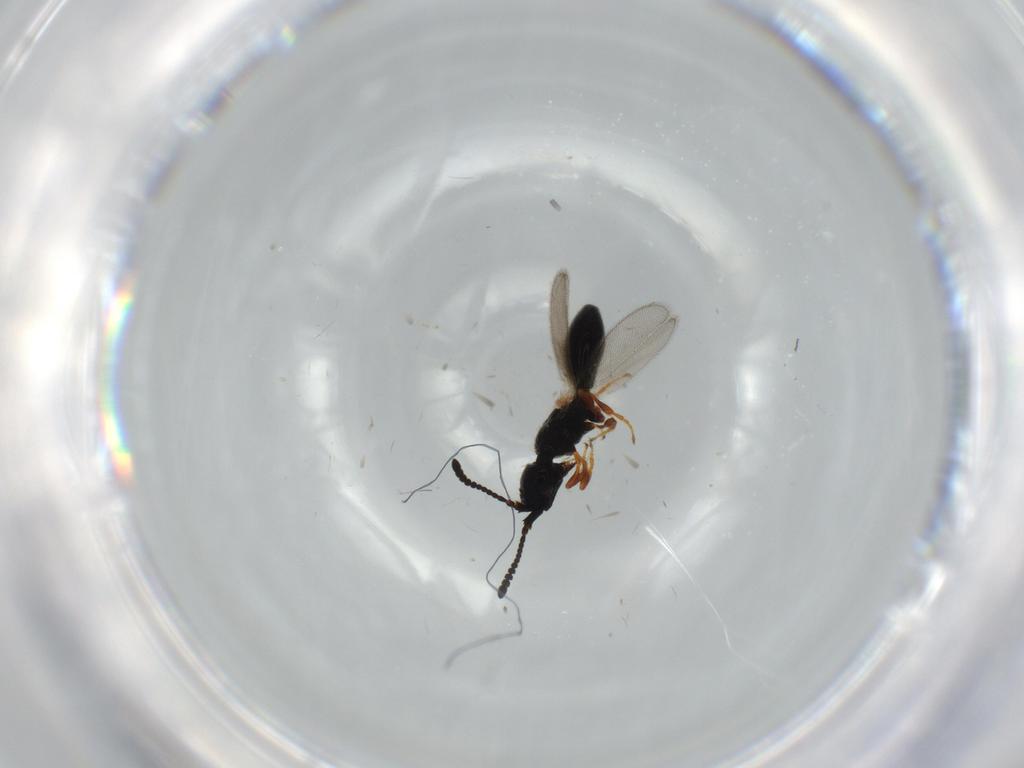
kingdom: Animalia
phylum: Arthropoda
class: Insecta
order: Hymenoptera
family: Diapriidae
